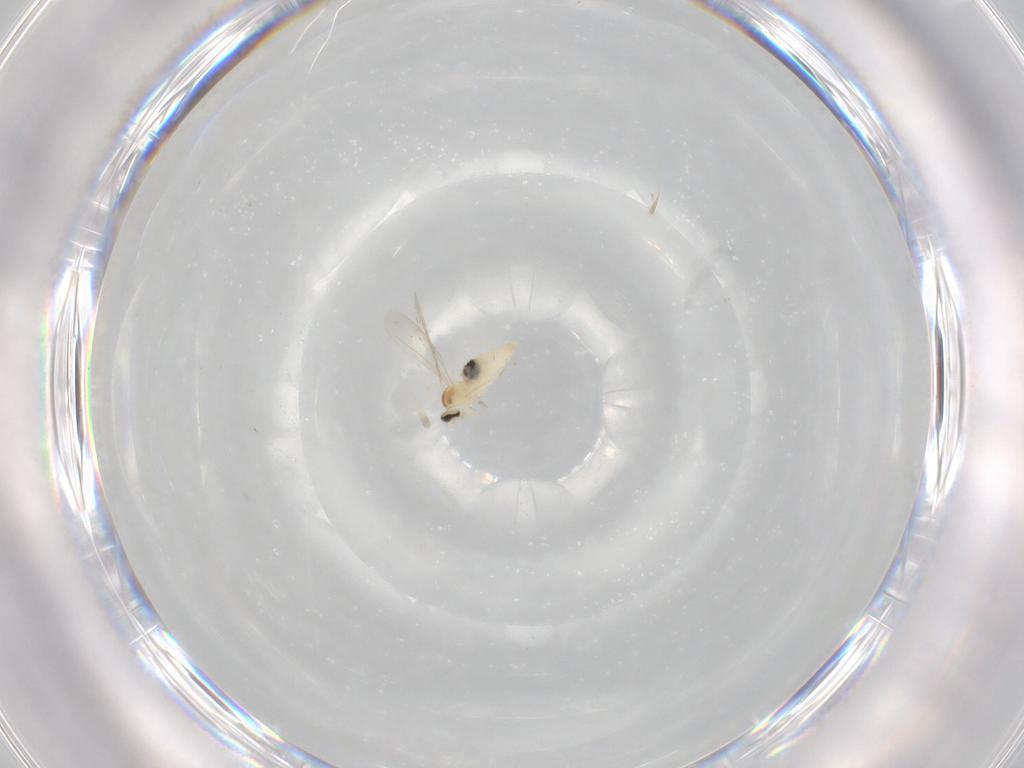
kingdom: Animalia
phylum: Arthropoda
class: Insecta
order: Diptera
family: Cecidomyiidae
